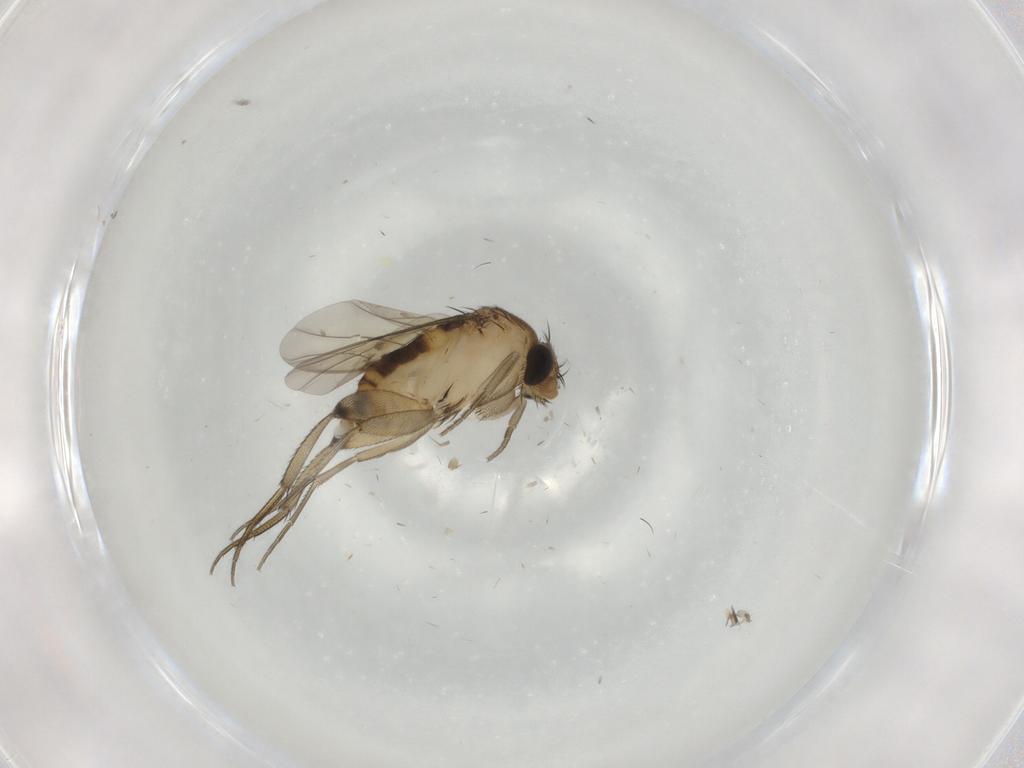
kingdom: Animalia
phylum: Arthropoda
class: Insecta
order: Diptera
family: Phoridae
